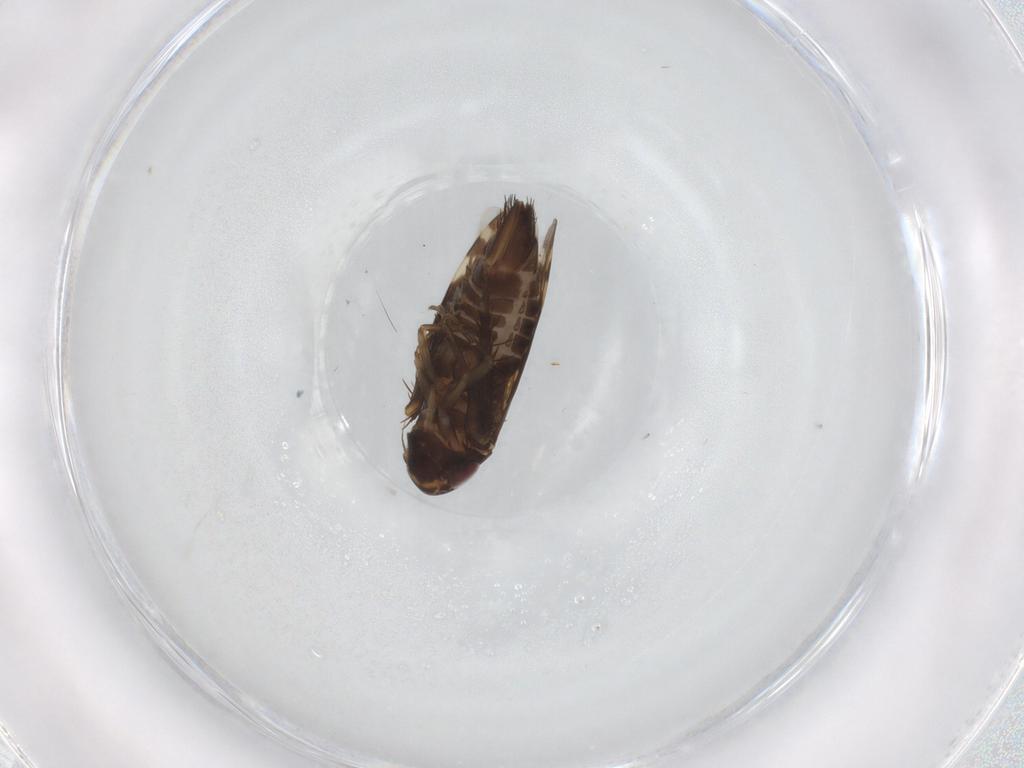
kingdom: Animalia
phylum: Arthropoda
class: Insecta
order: Hemiptera
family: Cicadellidae
